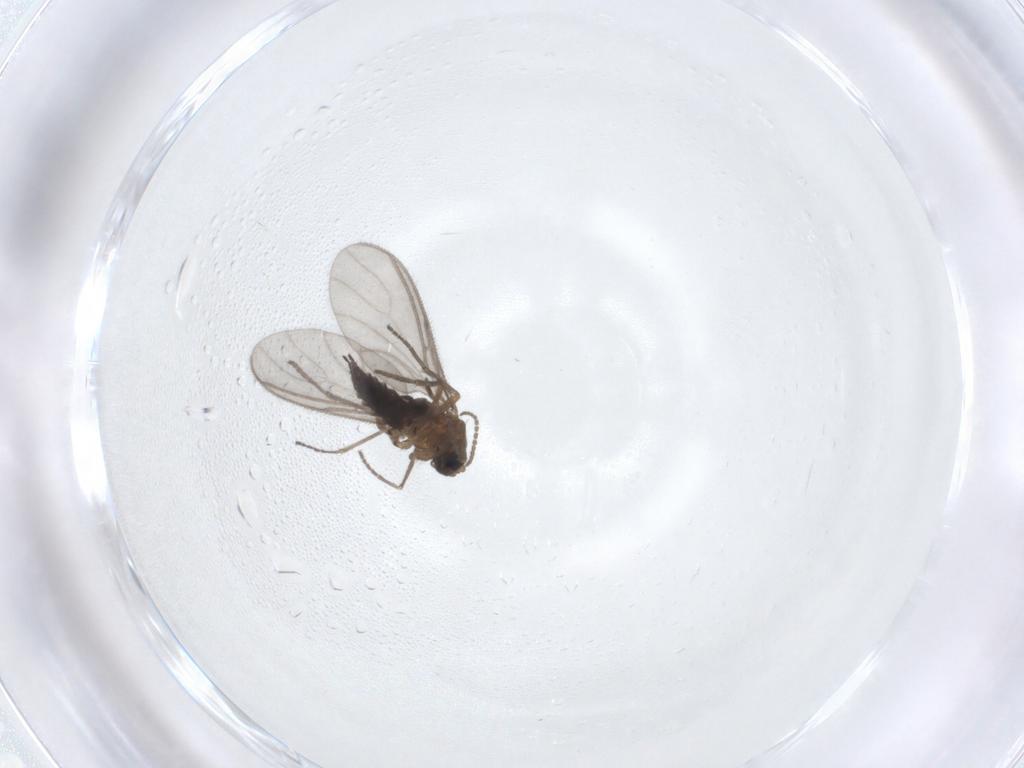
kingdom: Animalia
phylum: Arthropoda
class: Insecta
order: Diptera
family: Sciaridae
